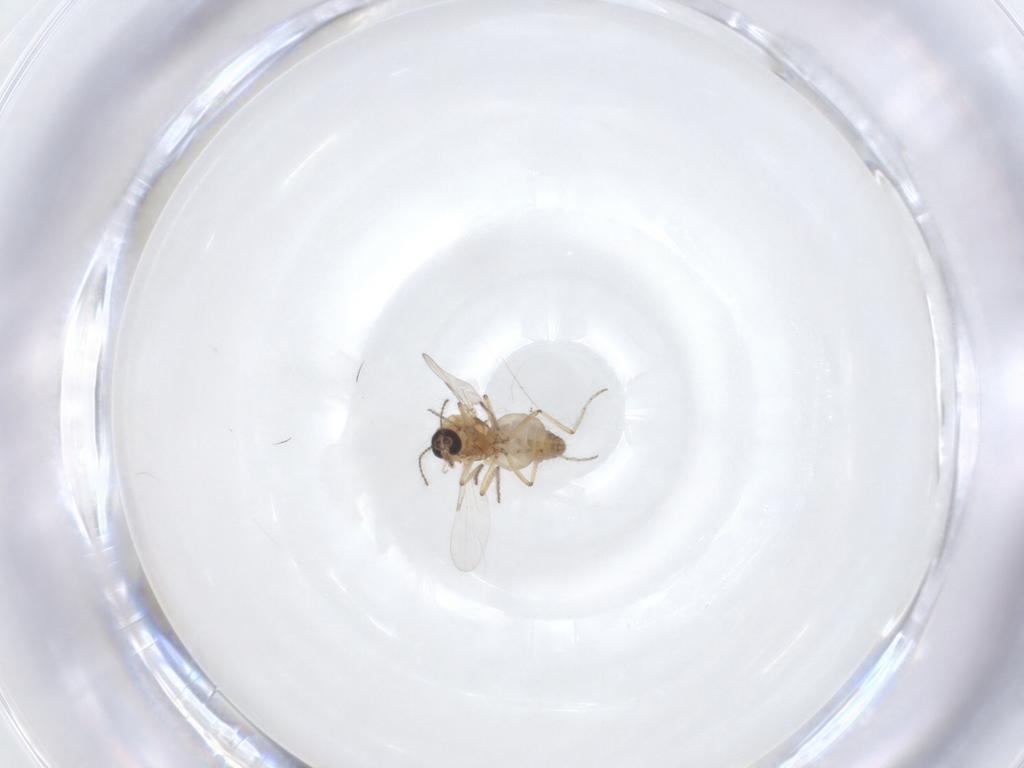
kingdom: Animalia
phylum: Arthropoda
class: Insecta
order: Diptera
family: Ceratopogonidae
